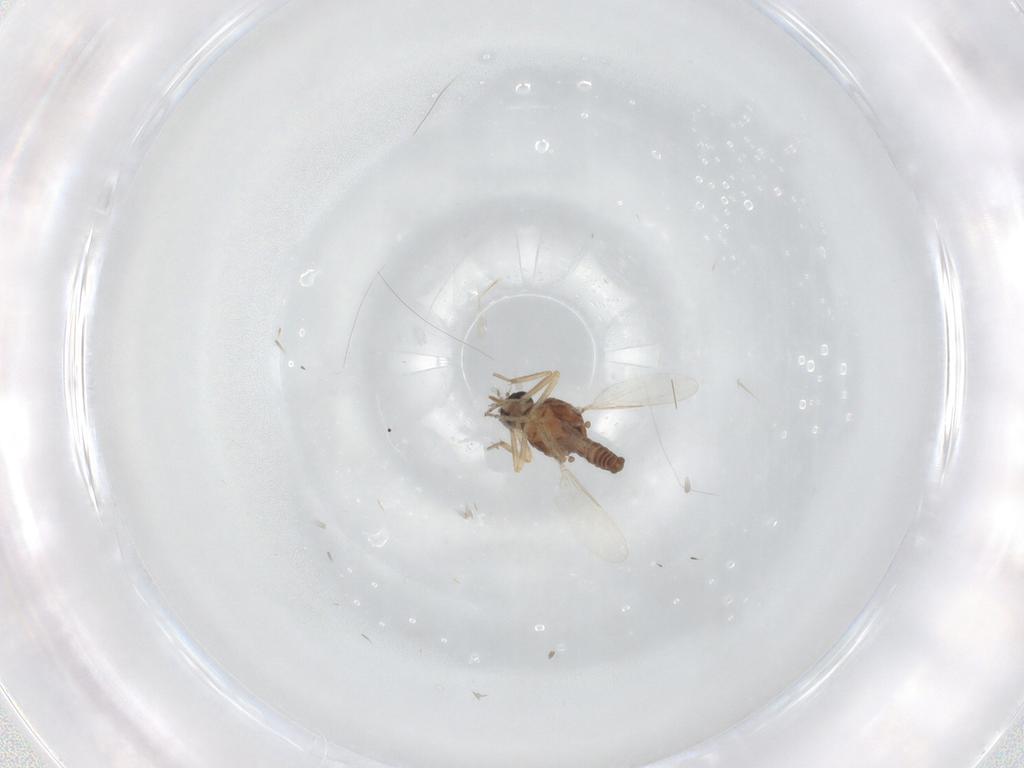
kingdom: Animalia
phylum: Arthropoda
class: Insecta
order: Diptera
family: Ceratopogonidae
